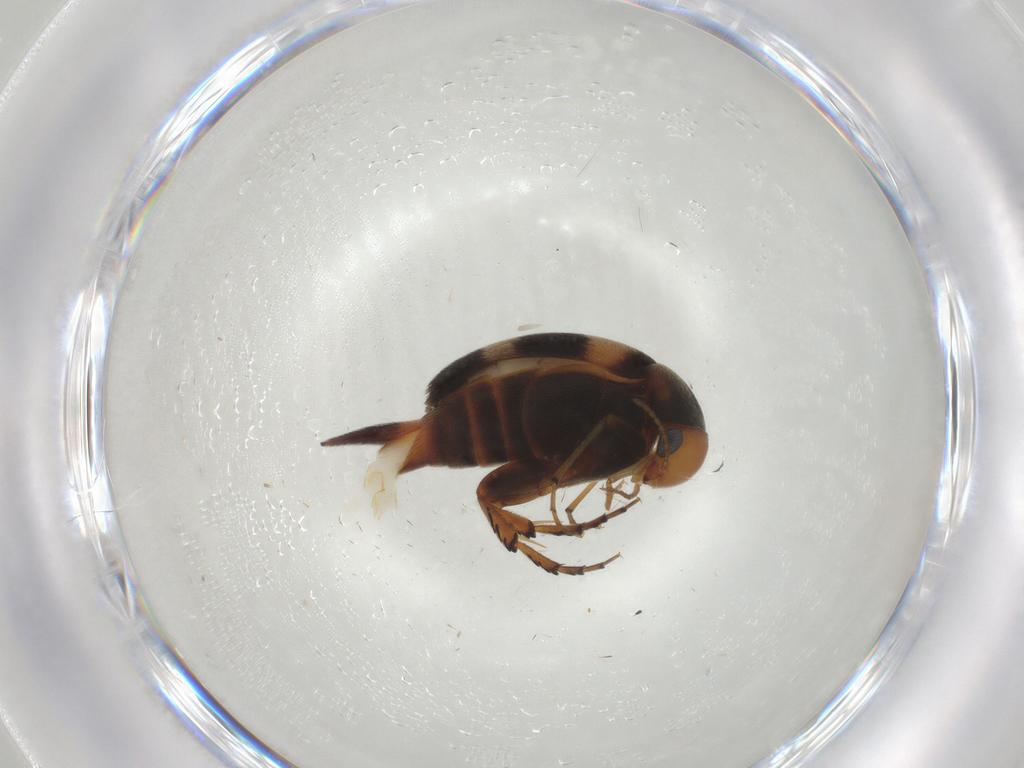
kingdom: Animalia
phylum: Arthropoda
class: Insecta
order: Coleoptera
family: Mordellidae
